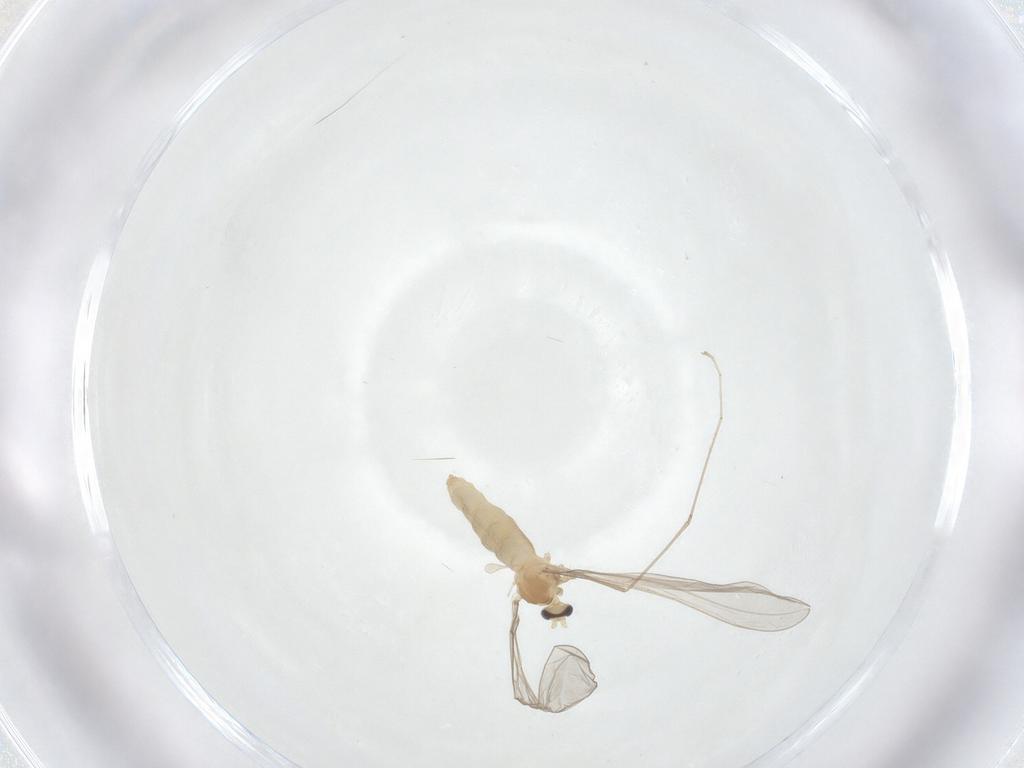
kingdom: Animalia
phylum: Arthropoda
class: Insecta
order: Diptera
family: Cecidomyiidae
